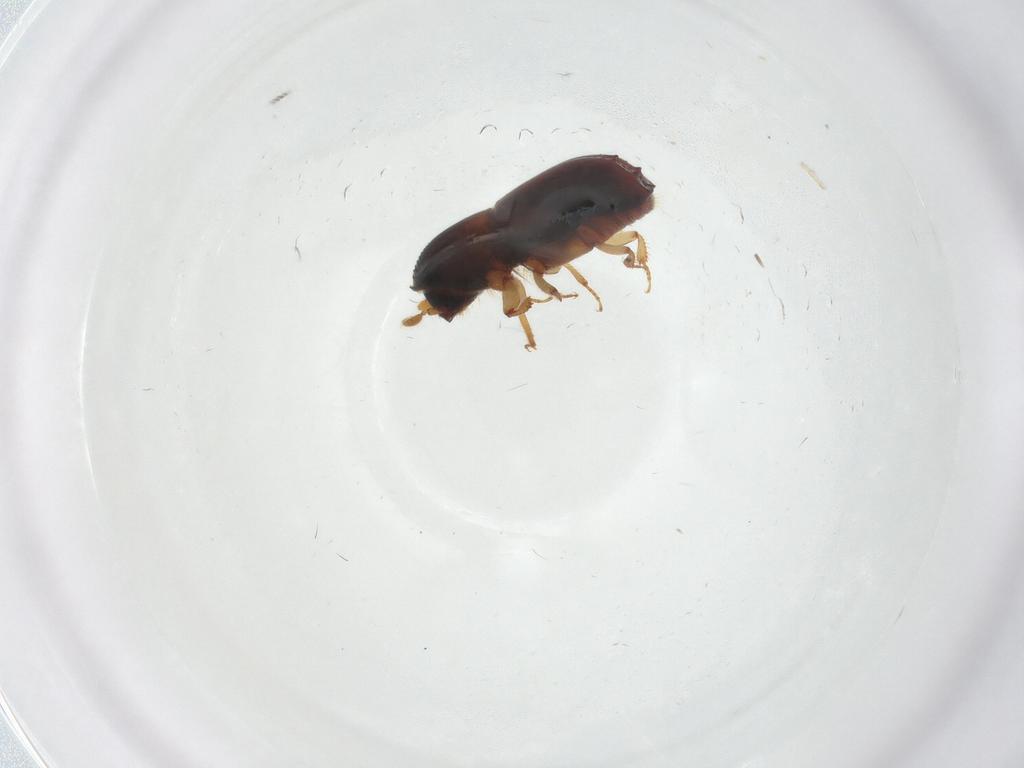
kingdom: Animalia
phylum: Arthropoda
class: Insecta
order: Coleoptera
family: Curculionidae
